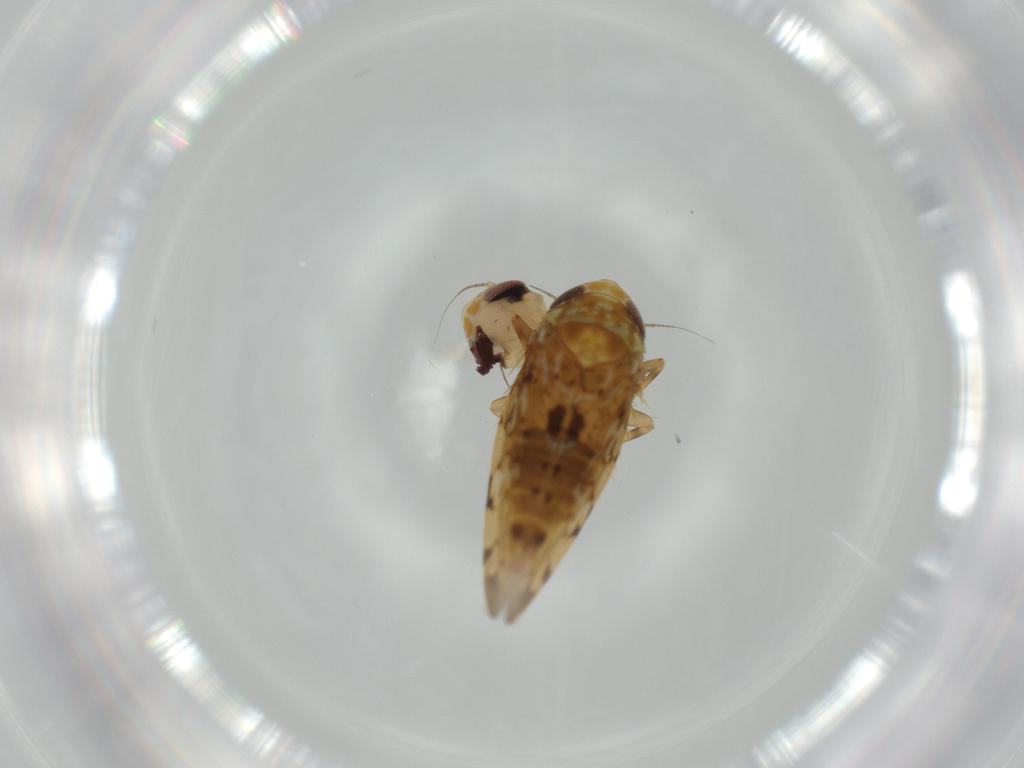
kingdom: Animalia
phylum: Arthropoda
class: Insecta
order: Hemiptera
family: Cicadellidae
